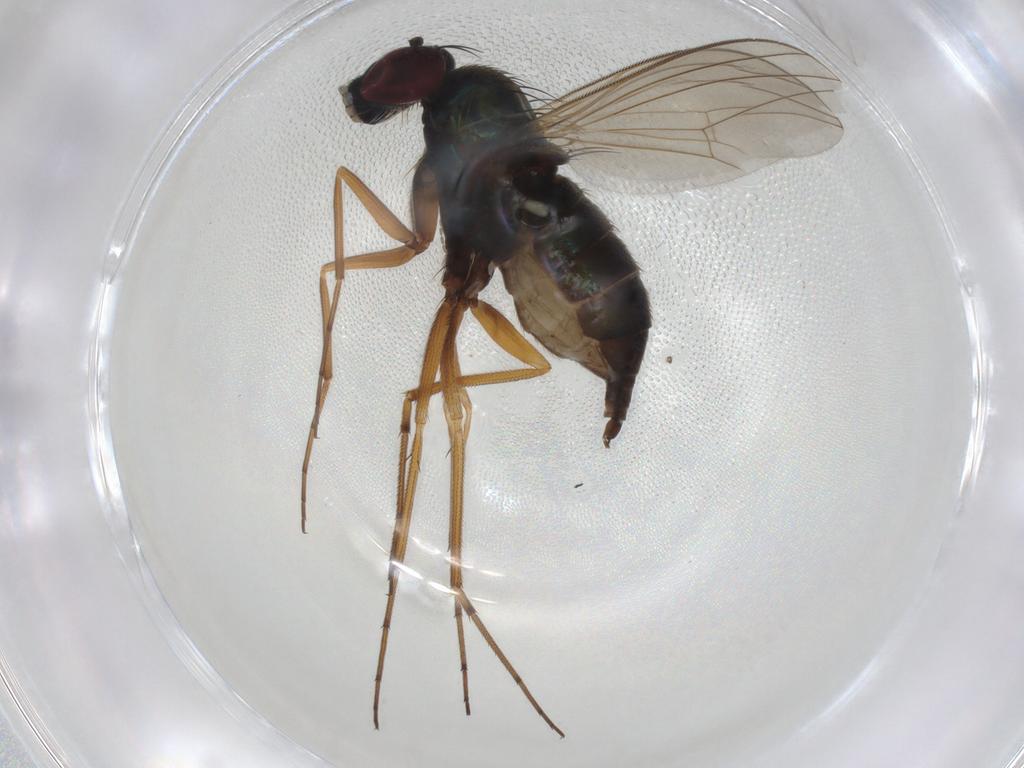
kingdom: Animalia
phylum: Arthropoda
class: Insecta
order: Diptera
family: Dolichopodidae
